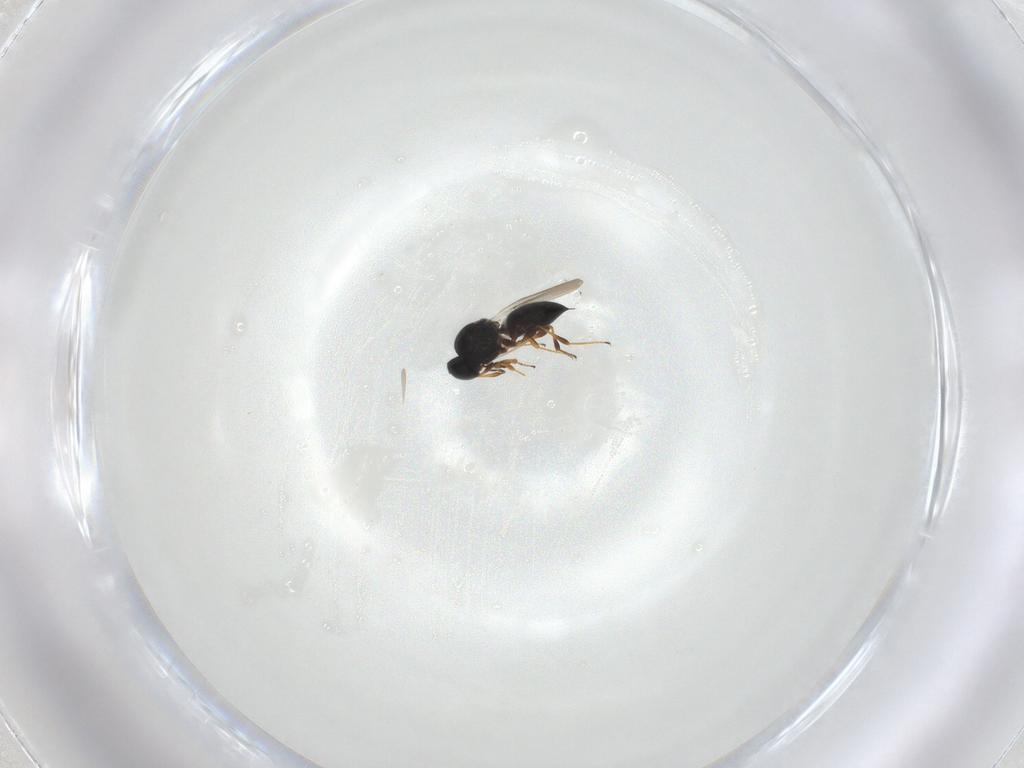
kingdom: Animalia
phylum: Arthropoda
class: Insecta
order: Hymenoptera
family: Platygastridae
